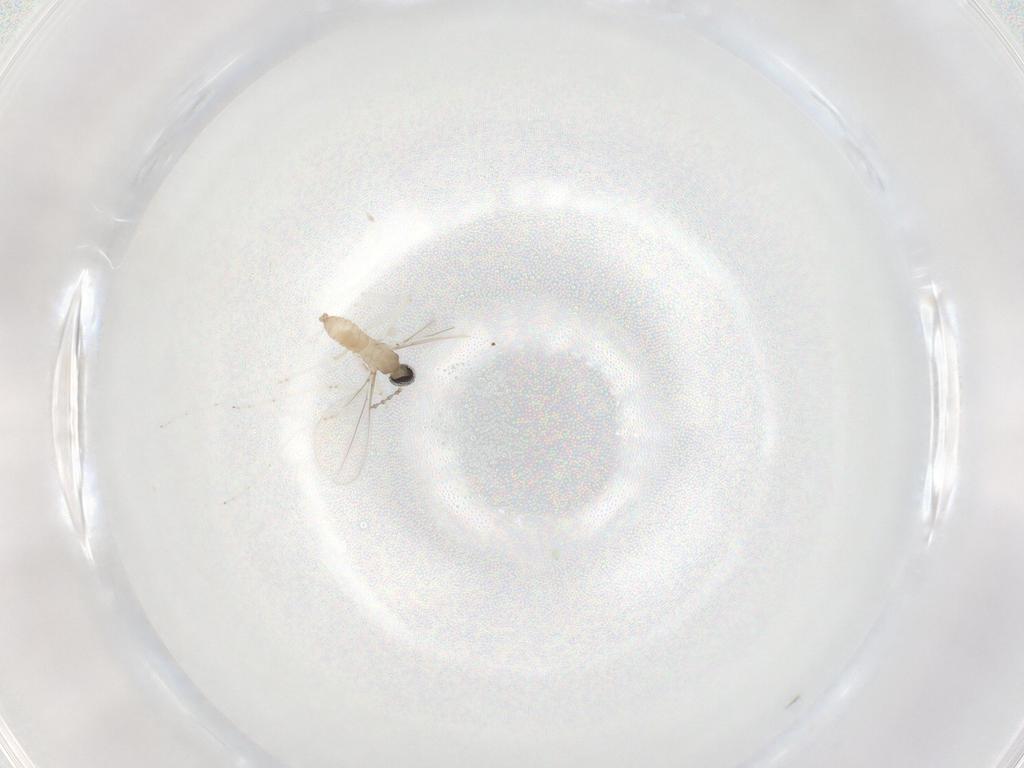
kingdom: Animalia
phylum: Arthropoda
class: Insecta
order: Diptera
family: Cecidomyiidae
